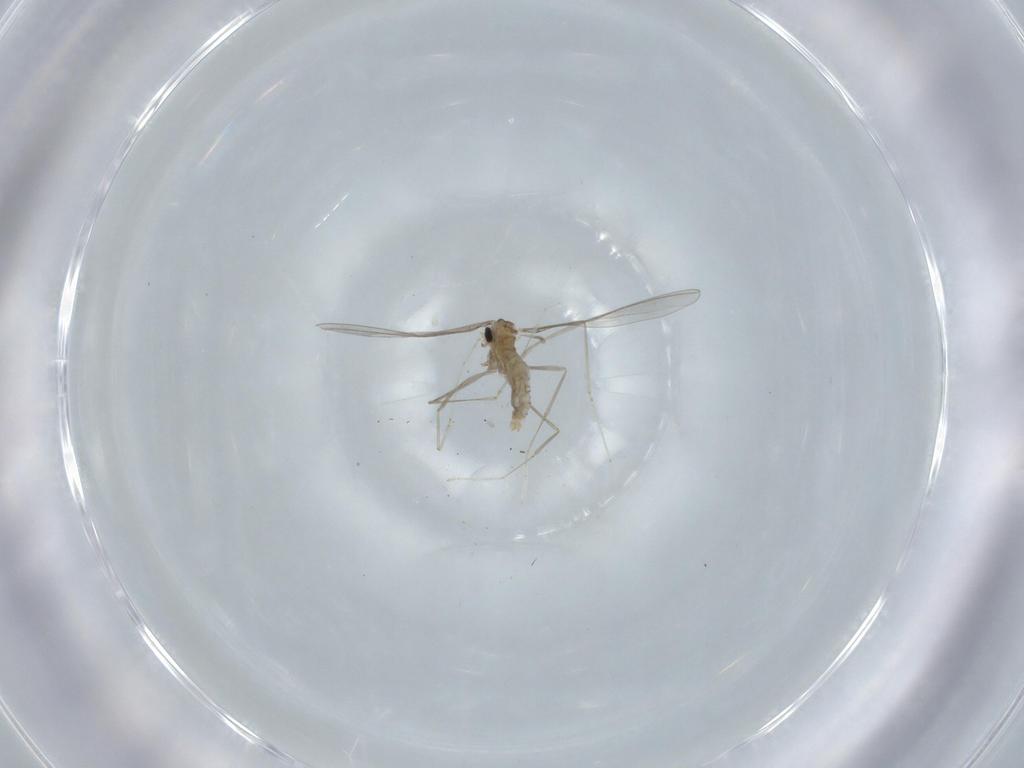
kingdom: Animalia
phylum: Arthropoda
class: Insecta
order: Diptera
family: Cecidomyiidae
